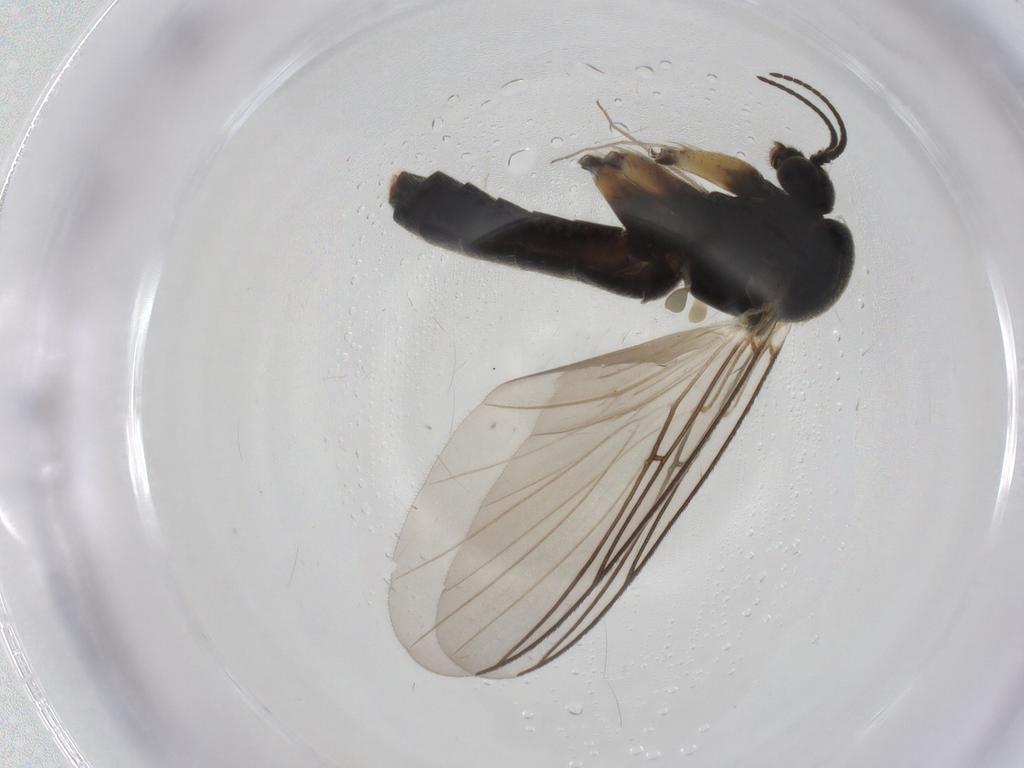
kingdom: Animalia
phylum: Arthropoda
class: Insecta
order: Diptera
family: Mycetophilidae
